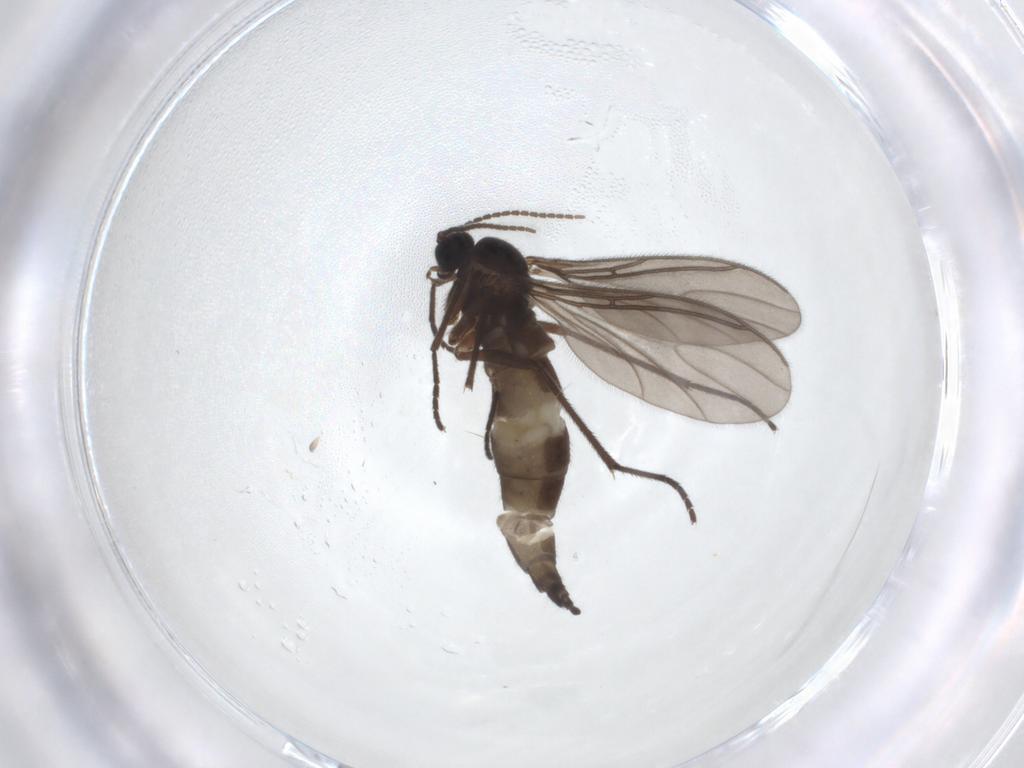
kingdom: Animalia
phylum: Arthropoda
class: Insecta
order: Diptera
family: Sciaridae
